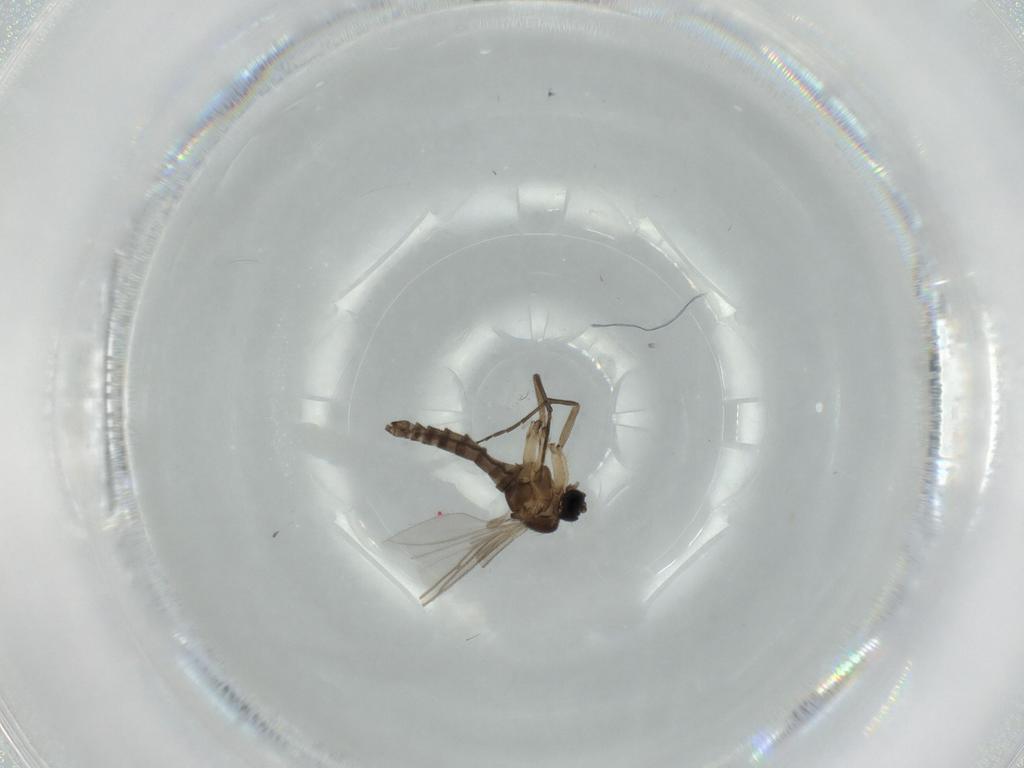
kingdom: Animalia
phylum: Arthropoda
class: Insecta
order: Diptera
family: Sciaridae
